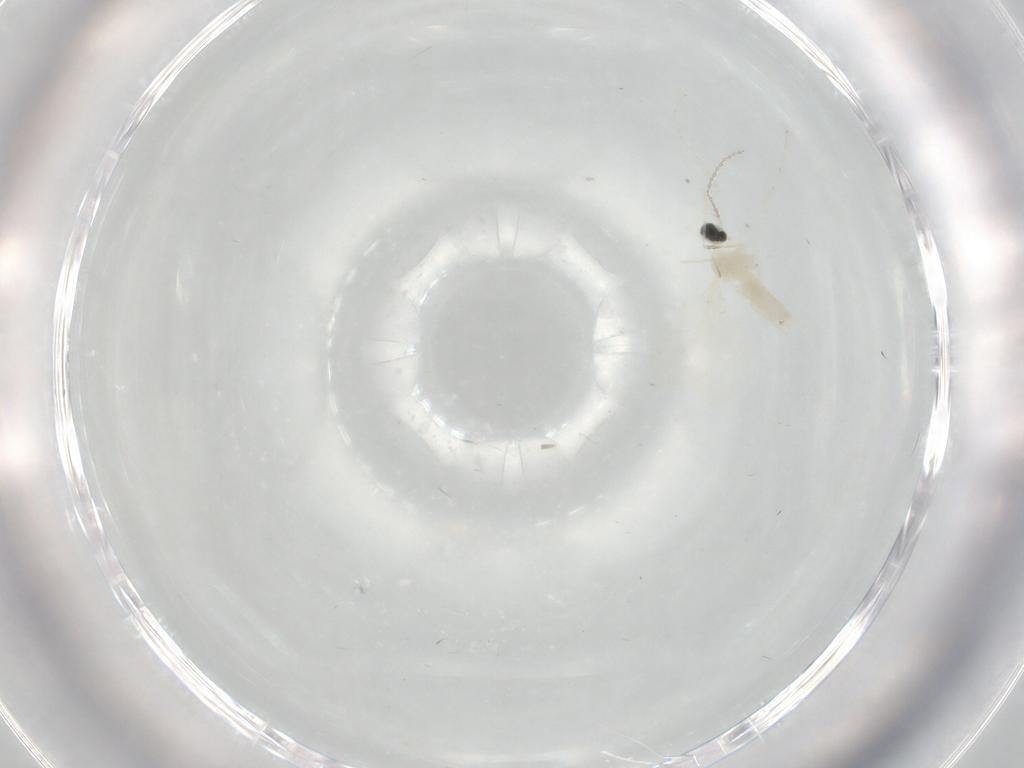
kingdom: Animalia
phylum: Arthropoda
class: Insecta
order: Diptera
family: Cecidomyiidae
